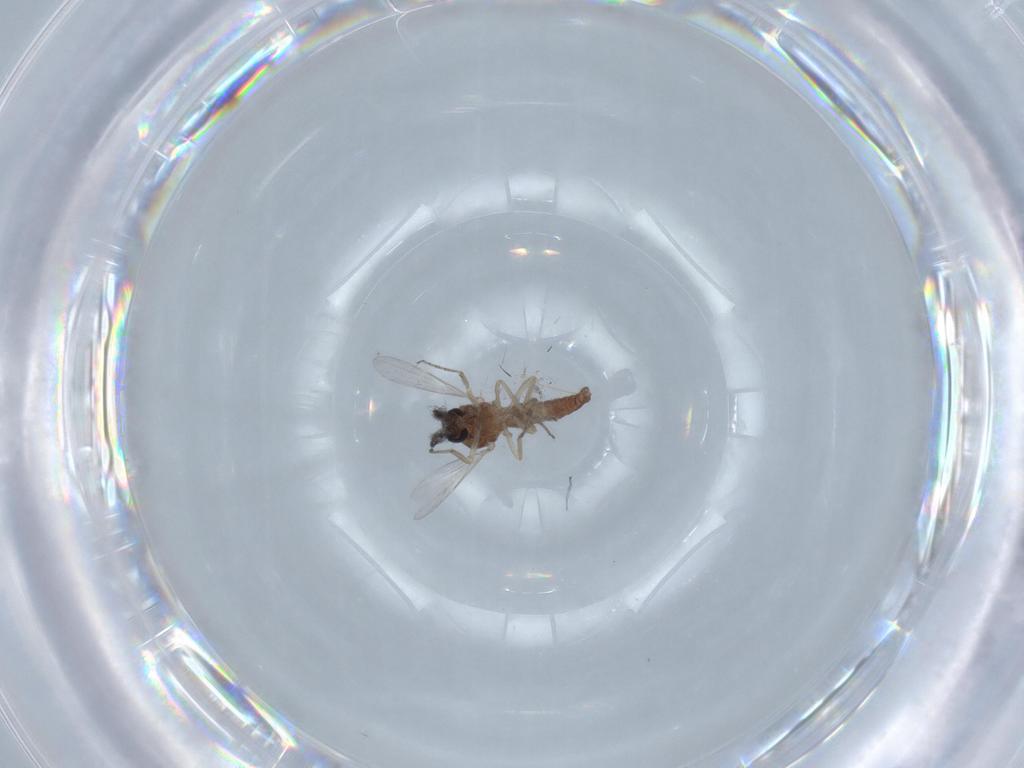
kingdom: Animalia
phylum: Arthropoda
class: Insecta
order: Diptera
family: Ceratopogonidae
